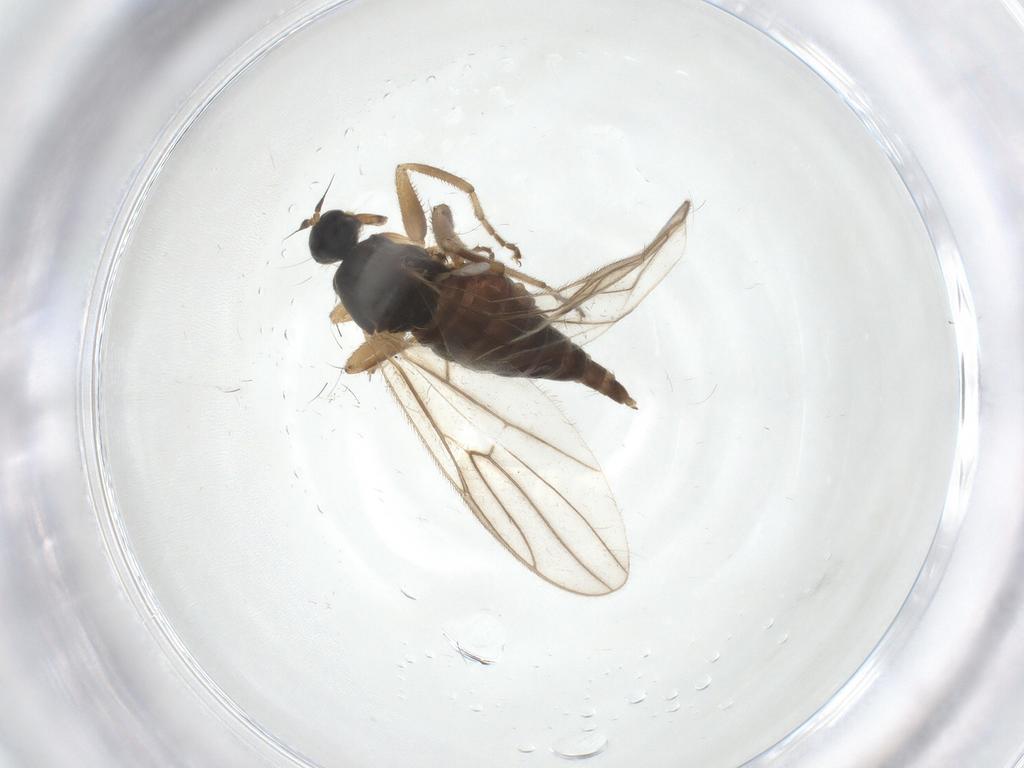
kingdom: Animalia
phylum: Arthropoda
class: Insecta
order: Diptera
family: Hybotidae
